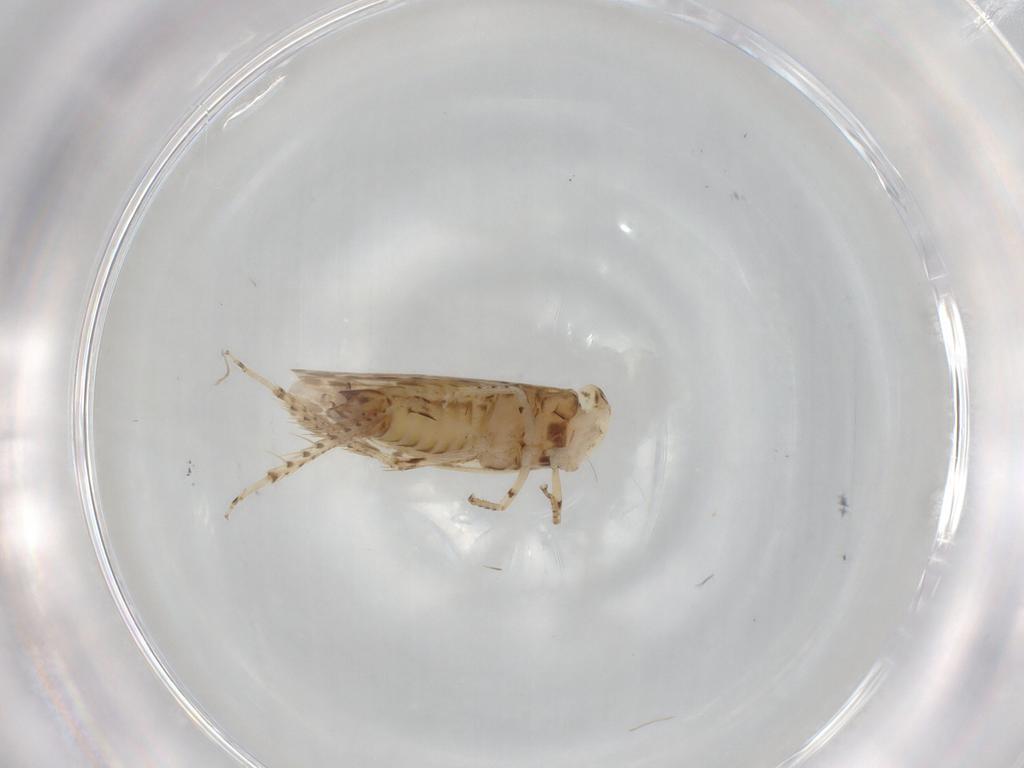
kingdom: Animalia
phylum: Arthropoda
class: Insecta
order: Hemiptera
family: Cicadellidae
